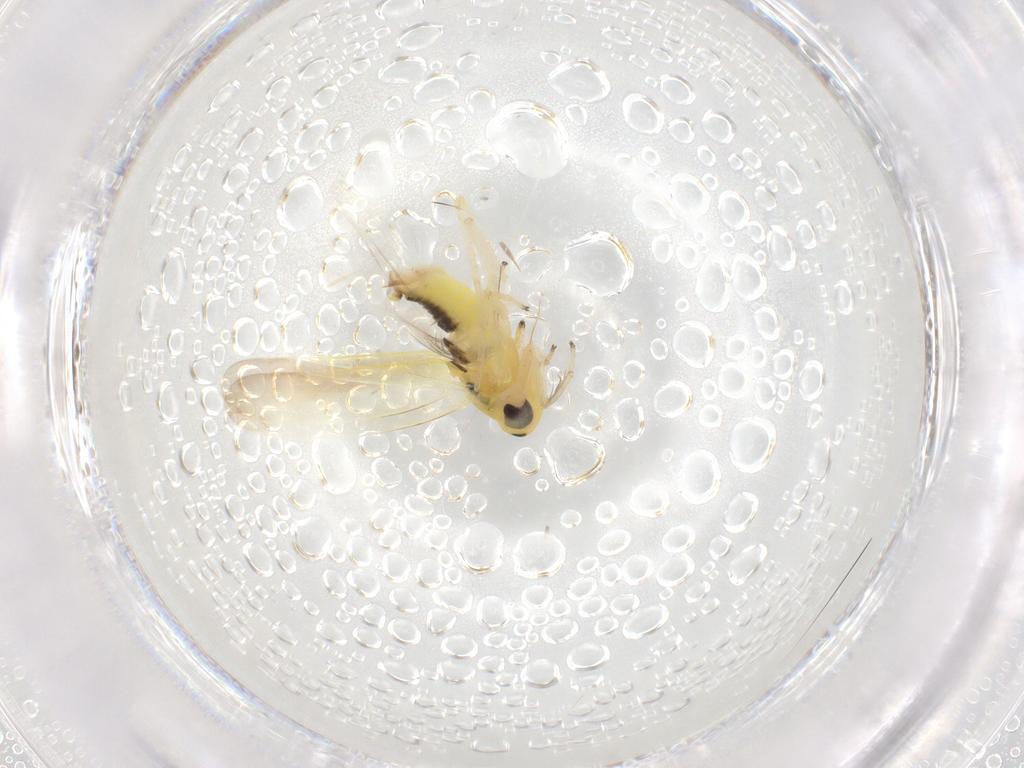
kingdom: Animalia
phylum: Arthropoda
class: Insecta
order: Hemiptera
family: Cicadellidae
